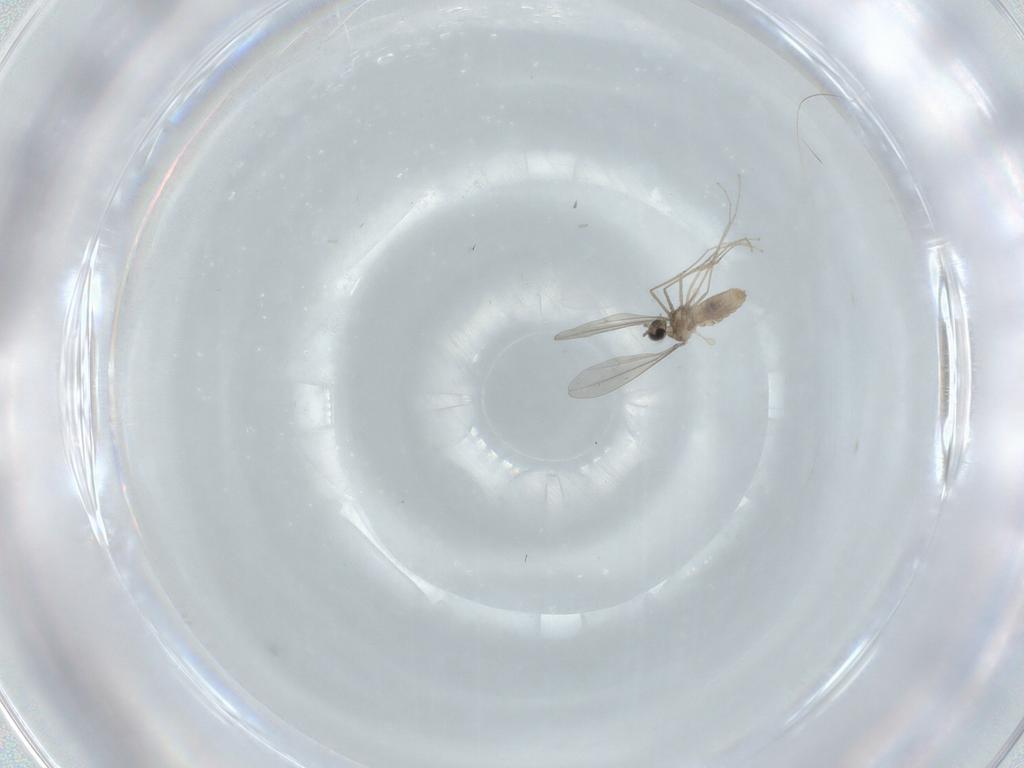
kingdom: Animalia
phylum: Arthropoda
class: Insecta
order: Diptera
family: Cecidomyiidae
